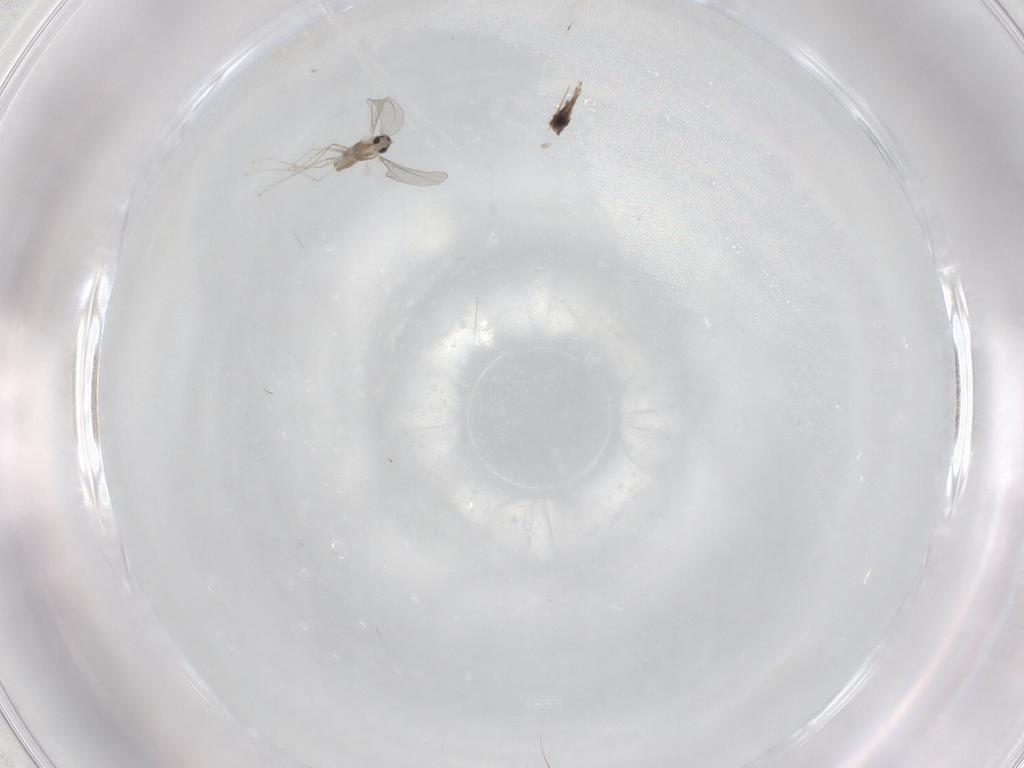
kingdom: Animalia
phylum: Arthropoda
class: Insecta
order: Diptera
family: Cecidomyiidae
